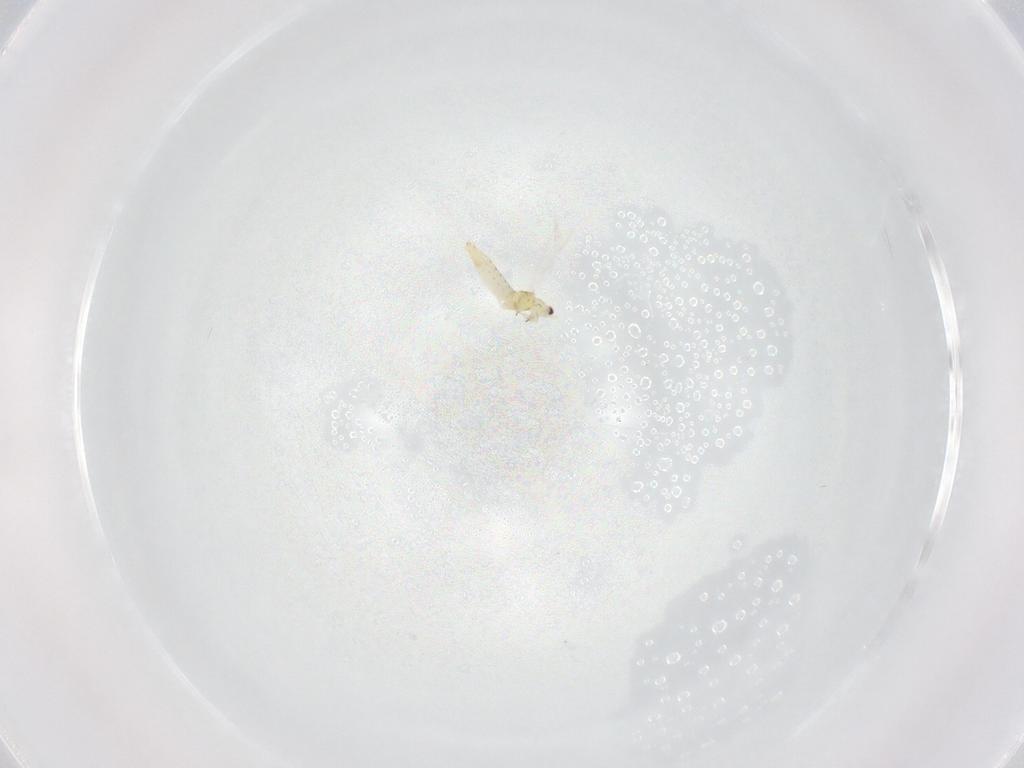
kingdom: Animalia
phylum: Arthropoda
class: Insecta
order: Thysanoptera
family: Thripidae
